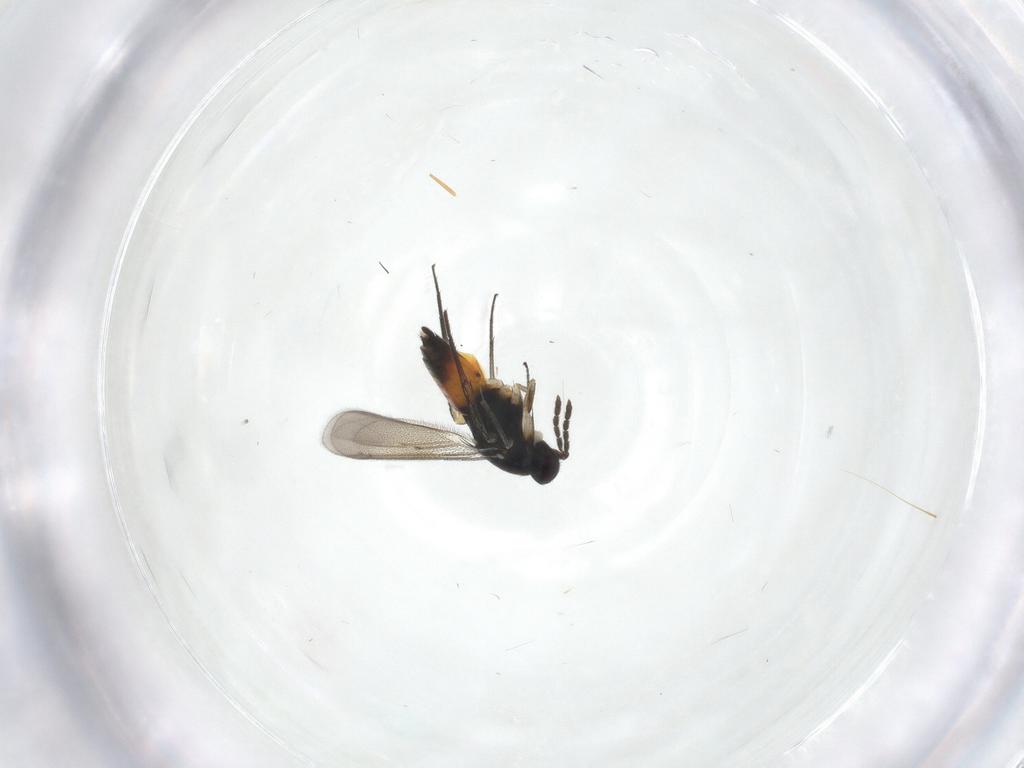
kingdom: Animalia
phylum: Arthropoda
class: Insecta
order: Hymenoptera
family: Eulophidae
